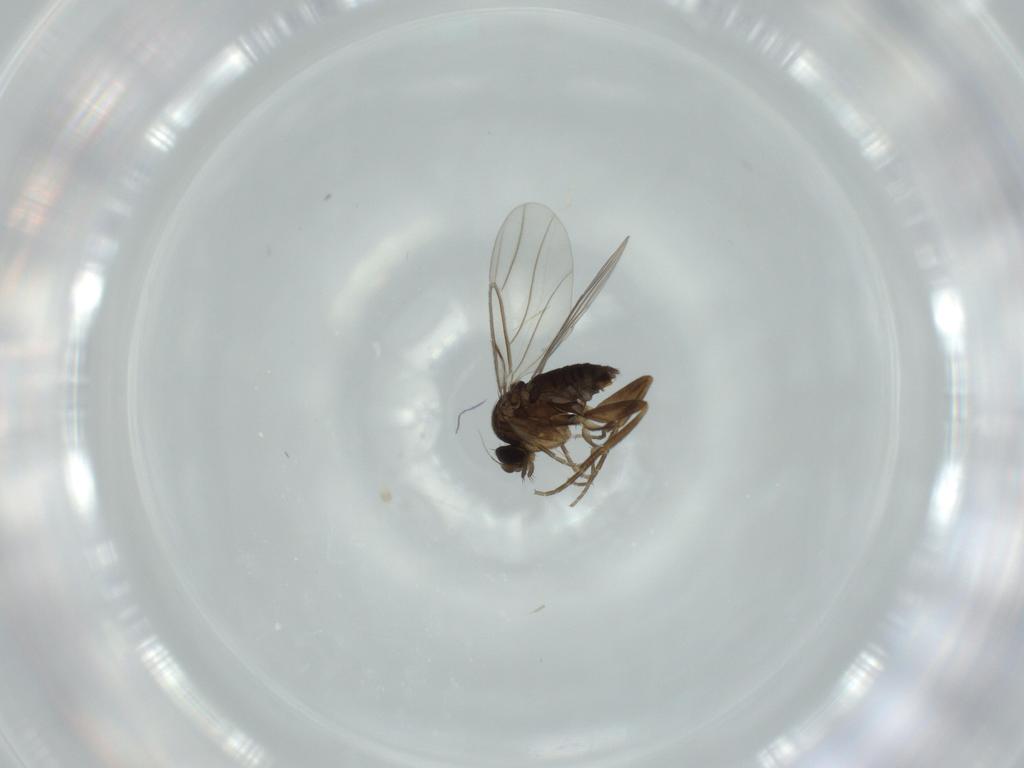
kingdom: Animalia
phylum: Arthropoda
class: Insecta
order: Diptera
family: Phoridae
